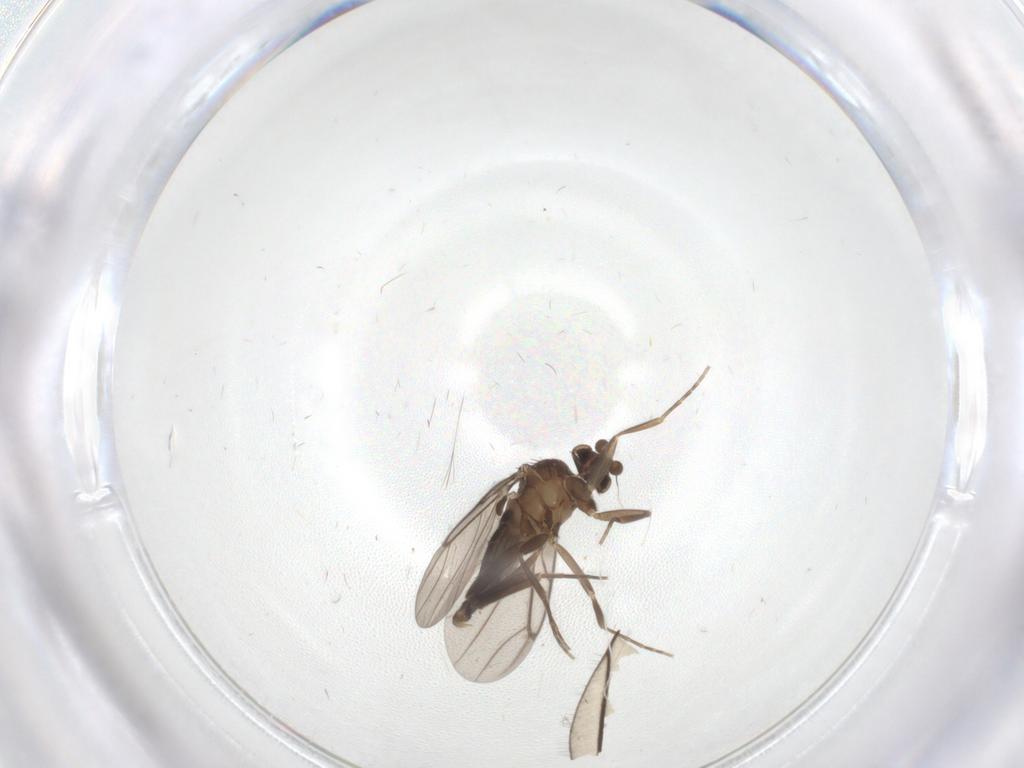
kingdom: Animalia
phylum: Arthropoda
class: Insecta
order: Diptera
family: Limoniidae
